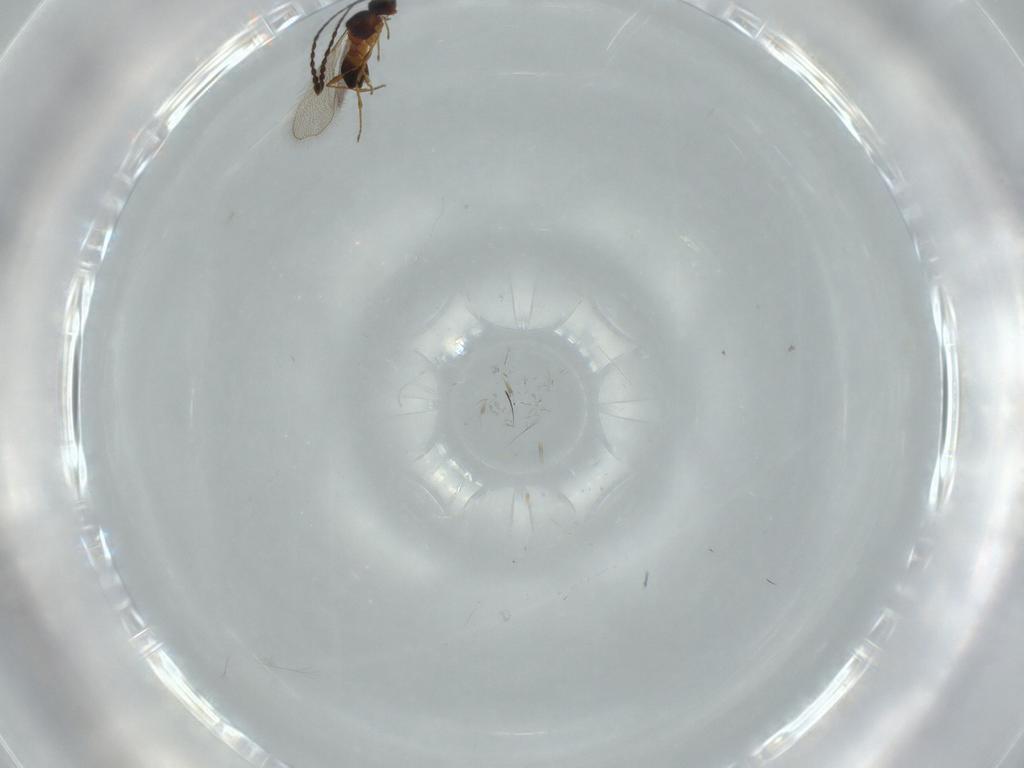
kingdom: Animalia
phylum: Arthropoda
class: Insecta
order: Hymenoptera
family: Diapriidae
